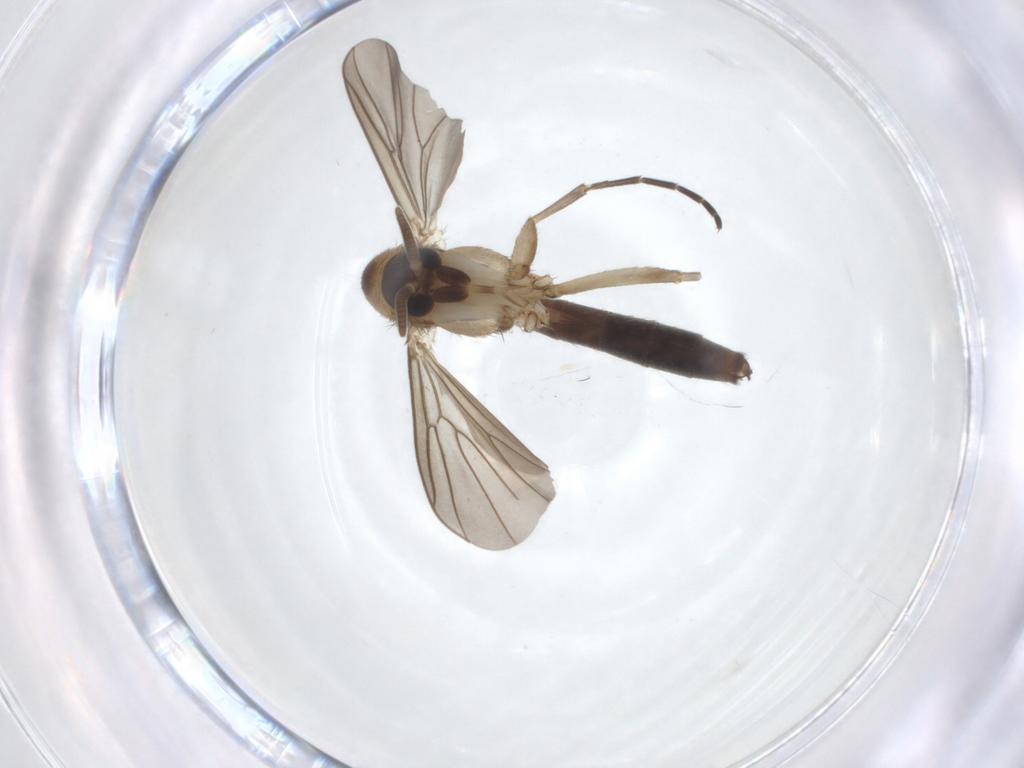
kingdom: Animalia
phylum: Arthropoda
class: Insecta
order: Diptera
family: Mycetophilidae
